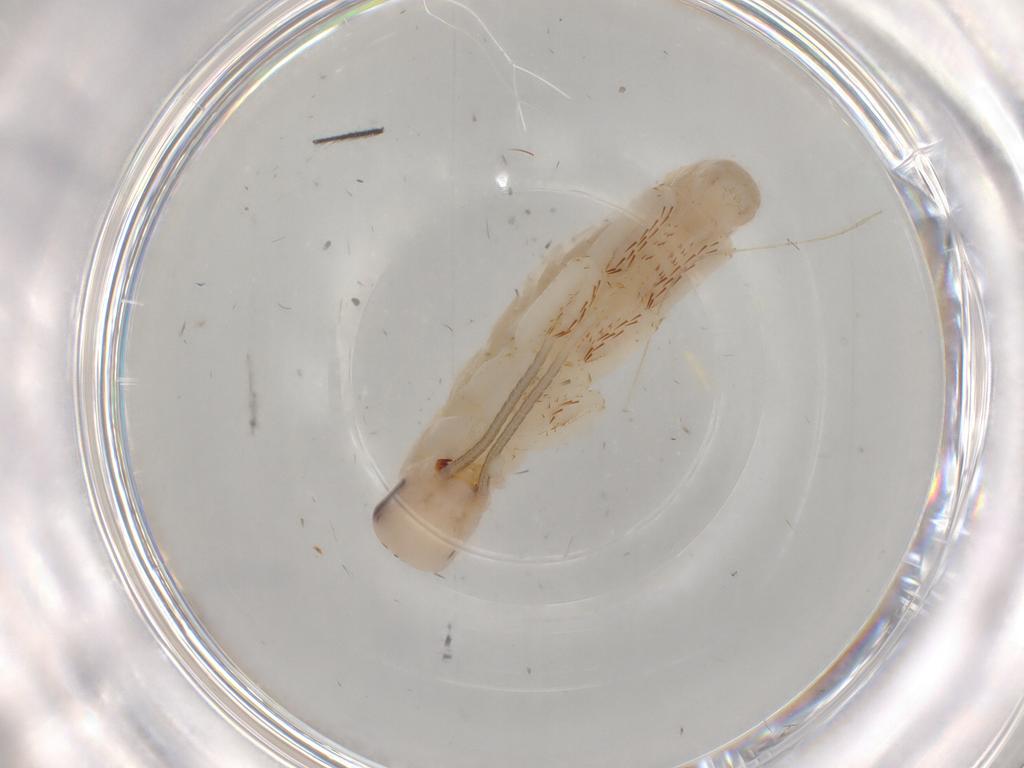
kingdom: Animalia
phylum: Arthropoda
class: Insecta
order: Blattodea
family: Blaberidae
